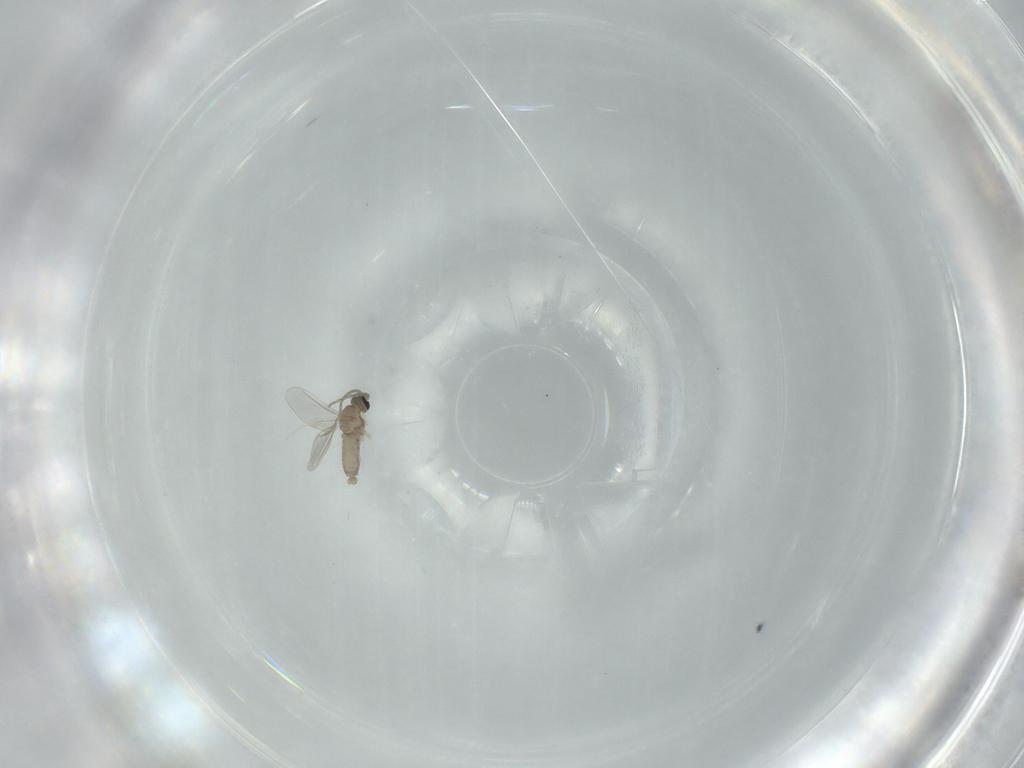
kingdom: Animalia
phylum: Arthropoda
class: Insecta
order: Diptera
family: Cecidomyiidae
